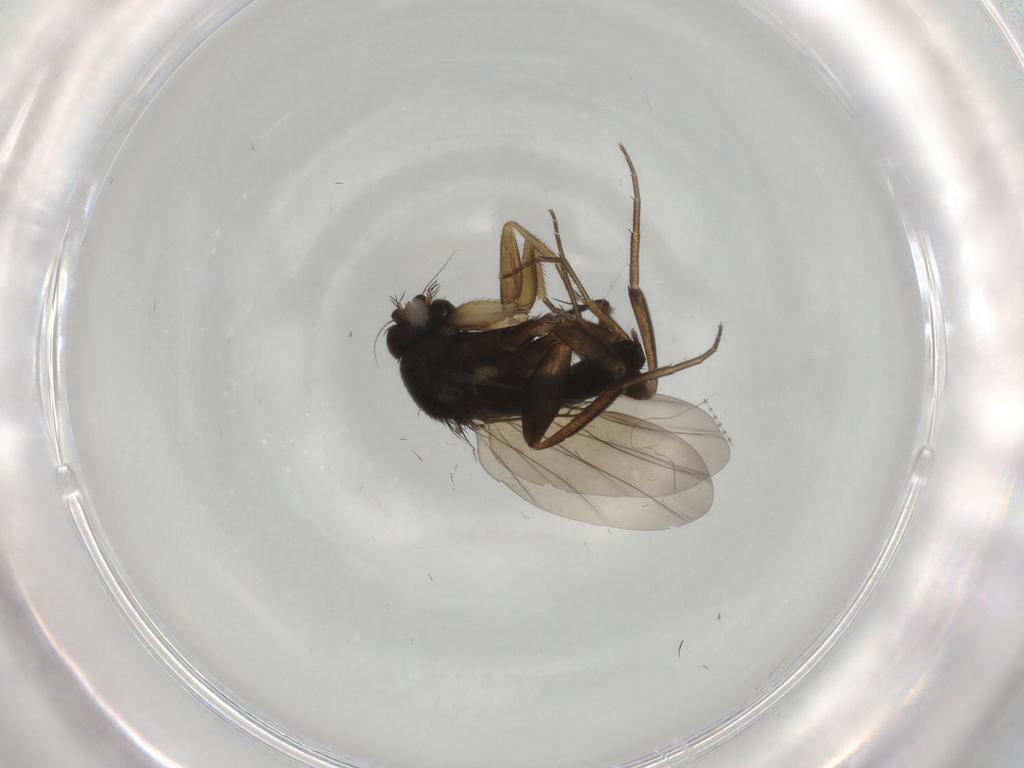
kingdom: Animalia
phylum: Arthropoda
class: Insecta
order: Diptera
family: Phoridae
